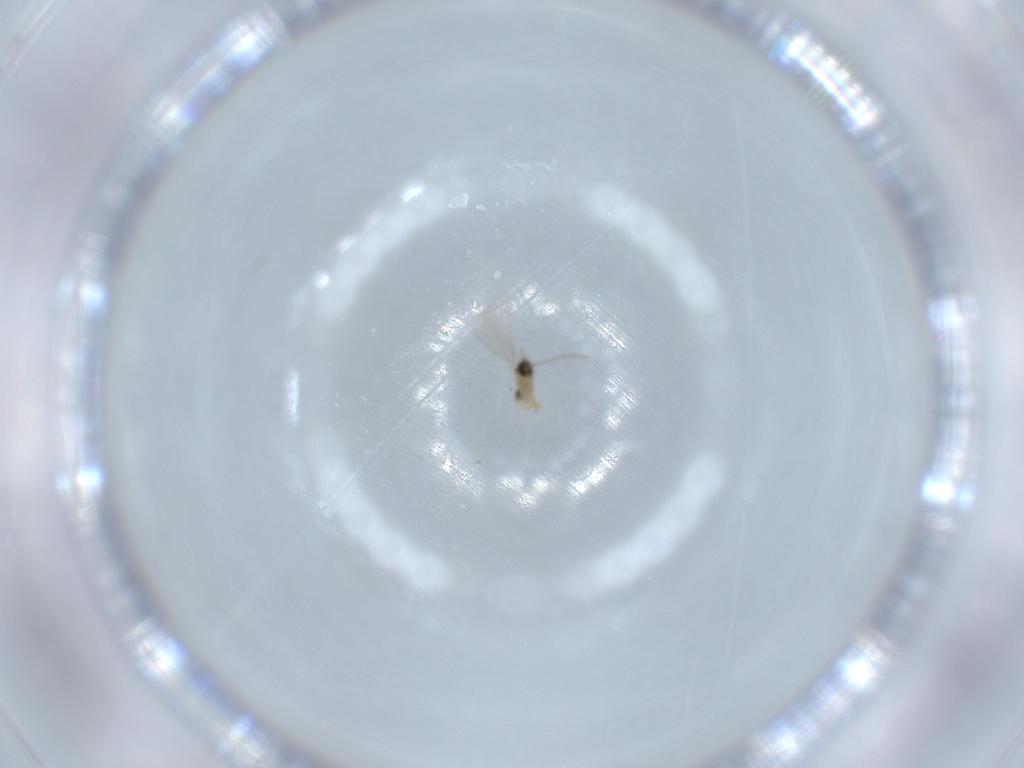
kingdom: Animalia
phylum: Arthropoda
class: Insecta
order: Diptera
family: Cecidomyiidae
